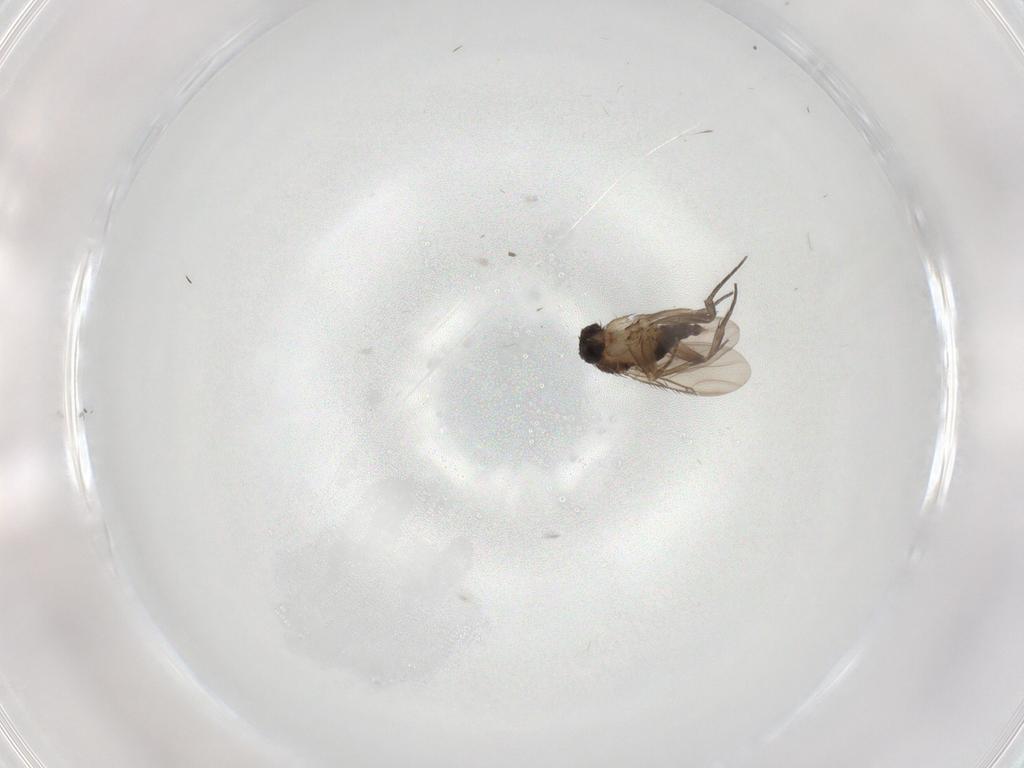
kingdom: Animalia
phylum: Arthropoda
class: Insecta
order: Diptera
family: Phoridae
